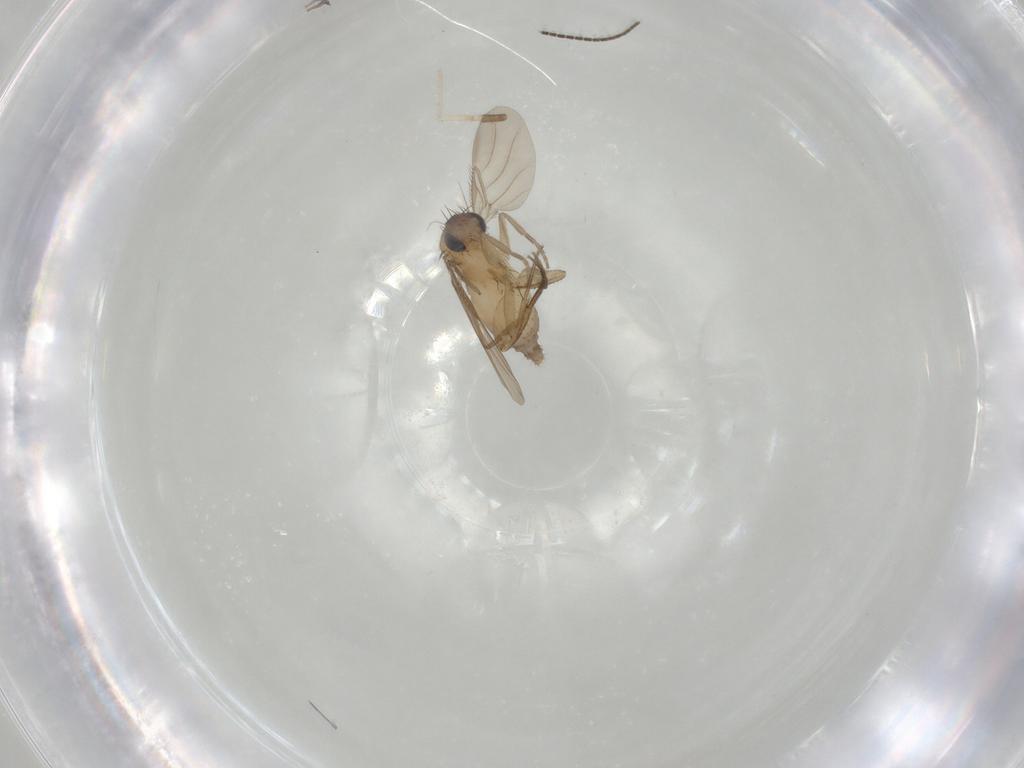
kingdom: Animalia
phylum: Arthropoda
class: Insecta
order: Diptera
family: Phoridae
